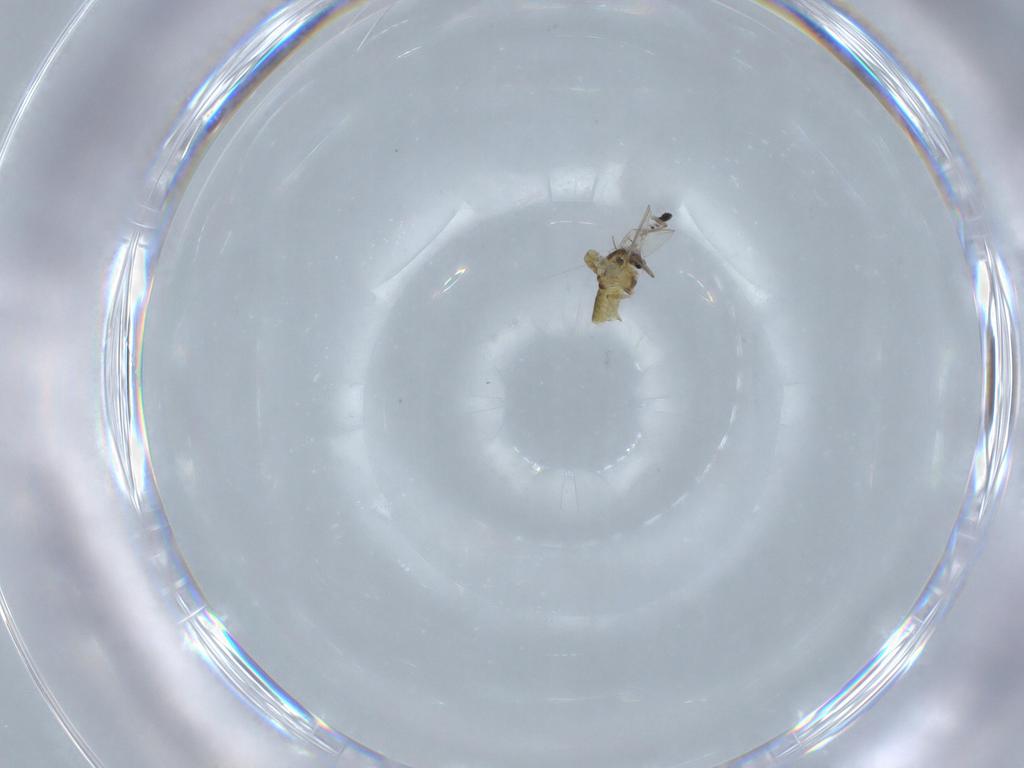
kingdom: Animalia
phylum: Arthropoda
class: Insecta
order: Diptera
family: Chironomidae
